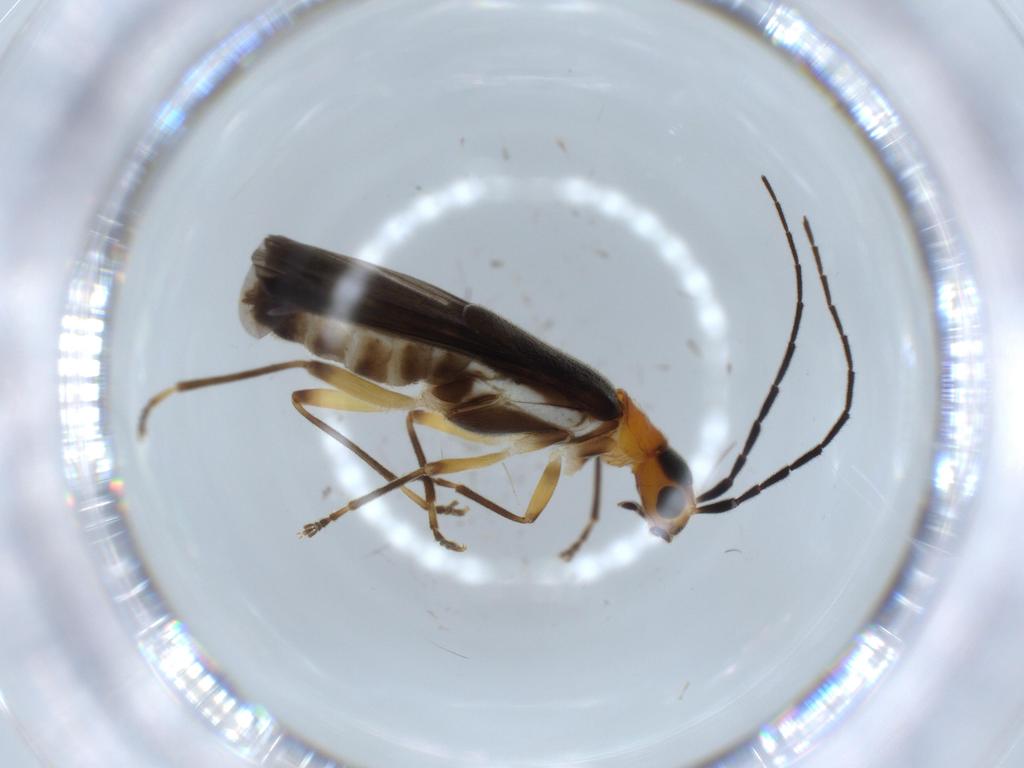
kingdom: Animalia
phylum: Arthropoda
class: Insecta
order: Coleoptera
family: Cantharidae
